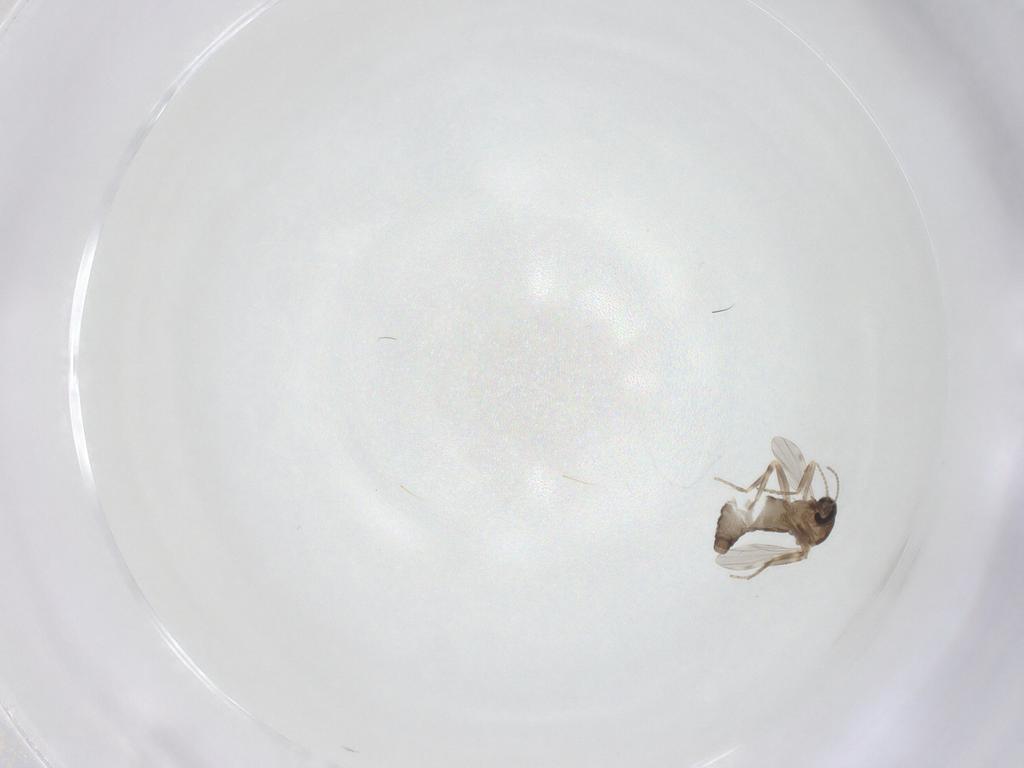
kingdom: Animalia
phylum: Arthropoda
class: Insecta
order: Diptera
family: Ceratopogonidae
